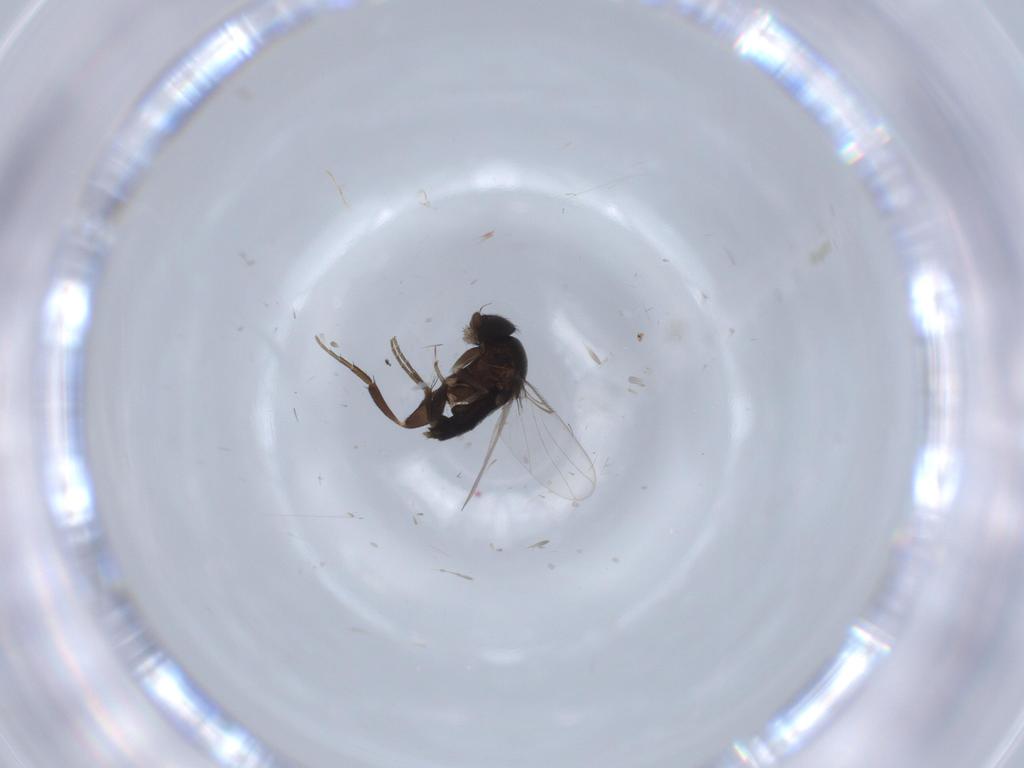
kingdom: Animalia
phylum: Arthropoda
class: Insecta
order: Diptera
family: Phoridae
